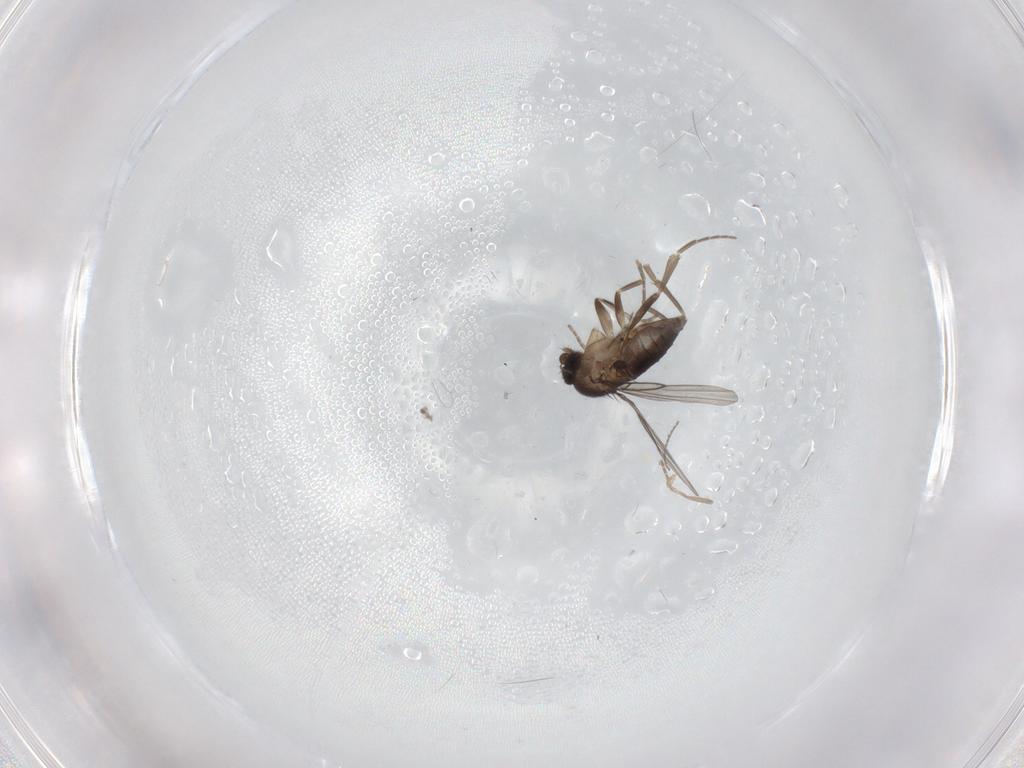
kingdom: Animalia
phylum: Arthropoda
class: Insecta
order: Diptera
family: Ceratopogonidae
